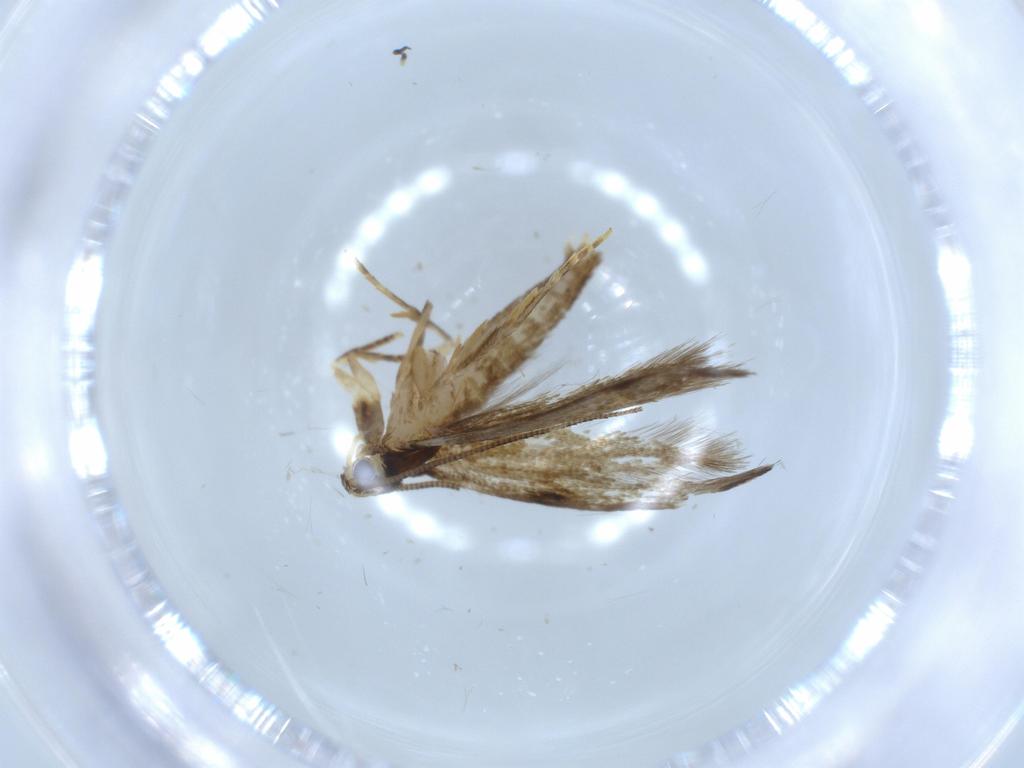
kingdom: Animalia
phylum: Arthropoda
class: Insecta
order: Lepidoptera
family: Tineidae
